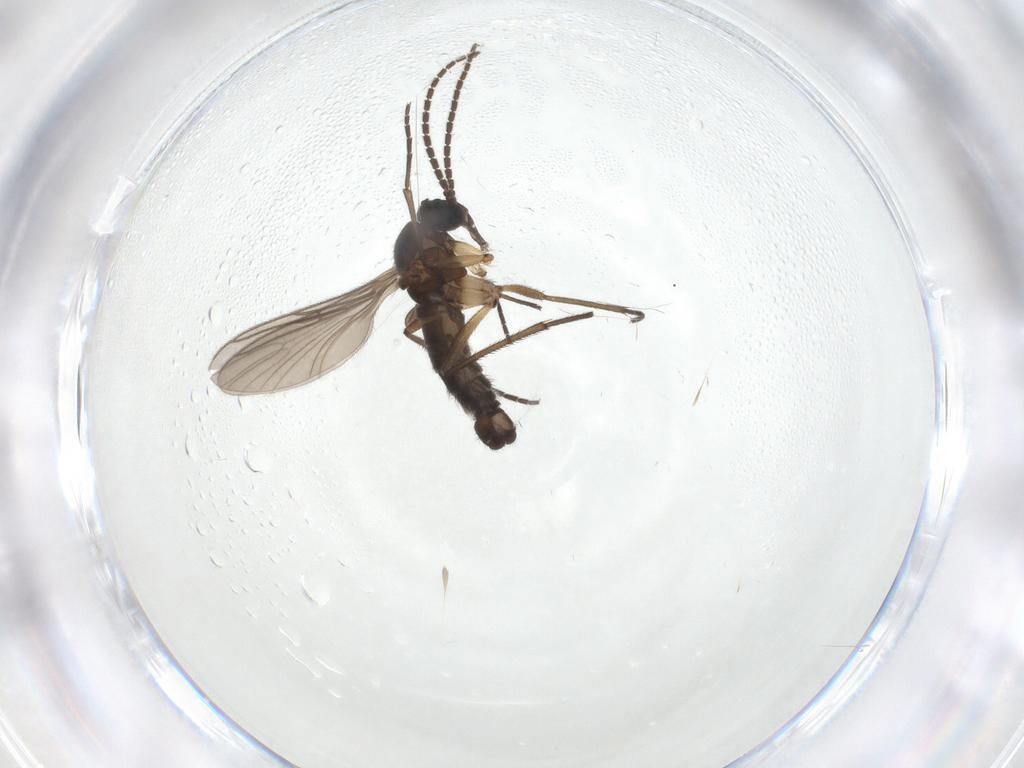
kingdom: Animalia
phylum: Arthropoda
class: Insecta
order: Diptera
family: Sciaridae
